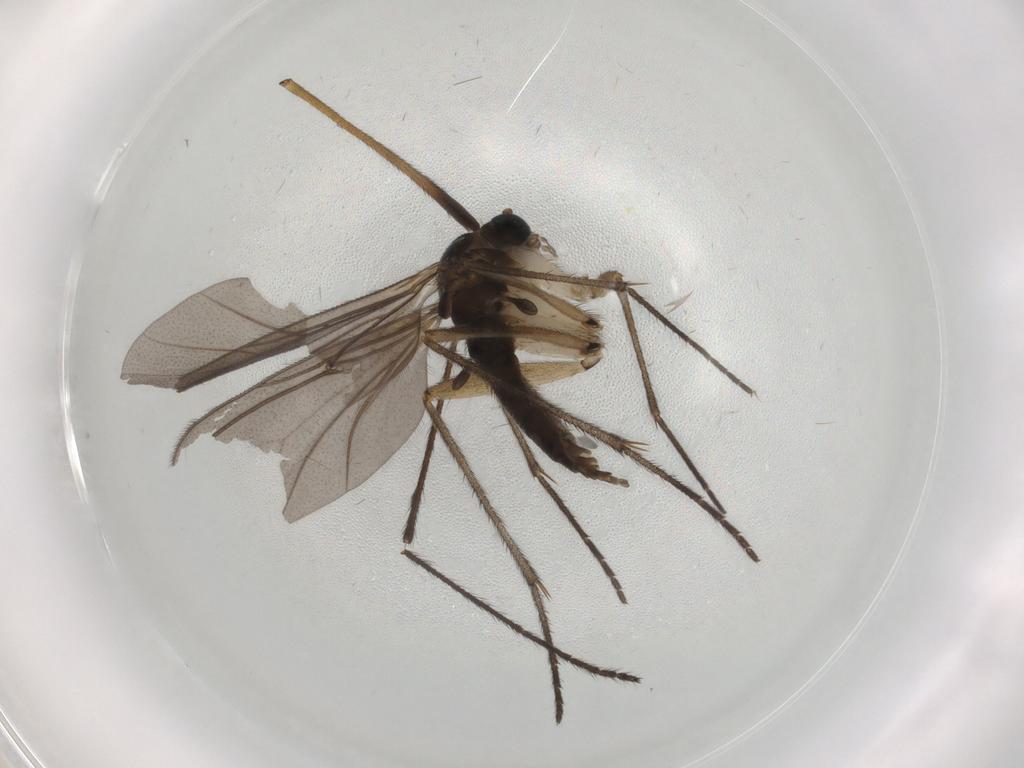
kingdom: Animalia
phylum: Arthropoda
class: Insecta
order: Diptera
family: Sciaridae
